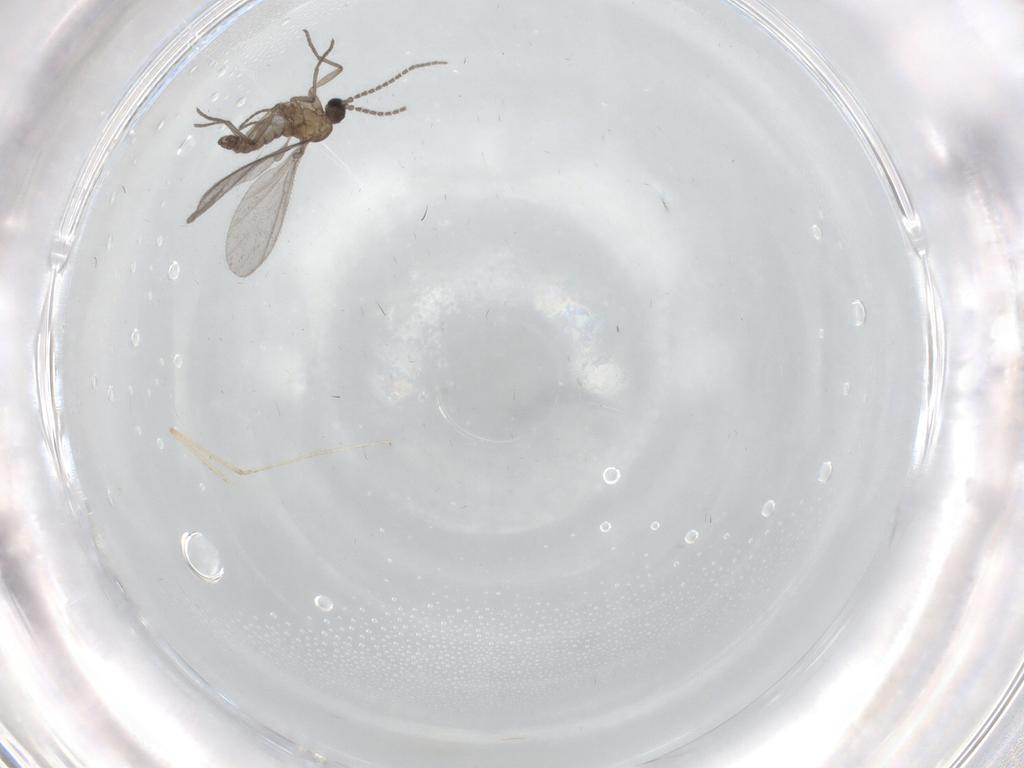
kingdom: Animalia
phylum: Arthropoda
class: Insecta
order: Diptera
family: Sciaridae
